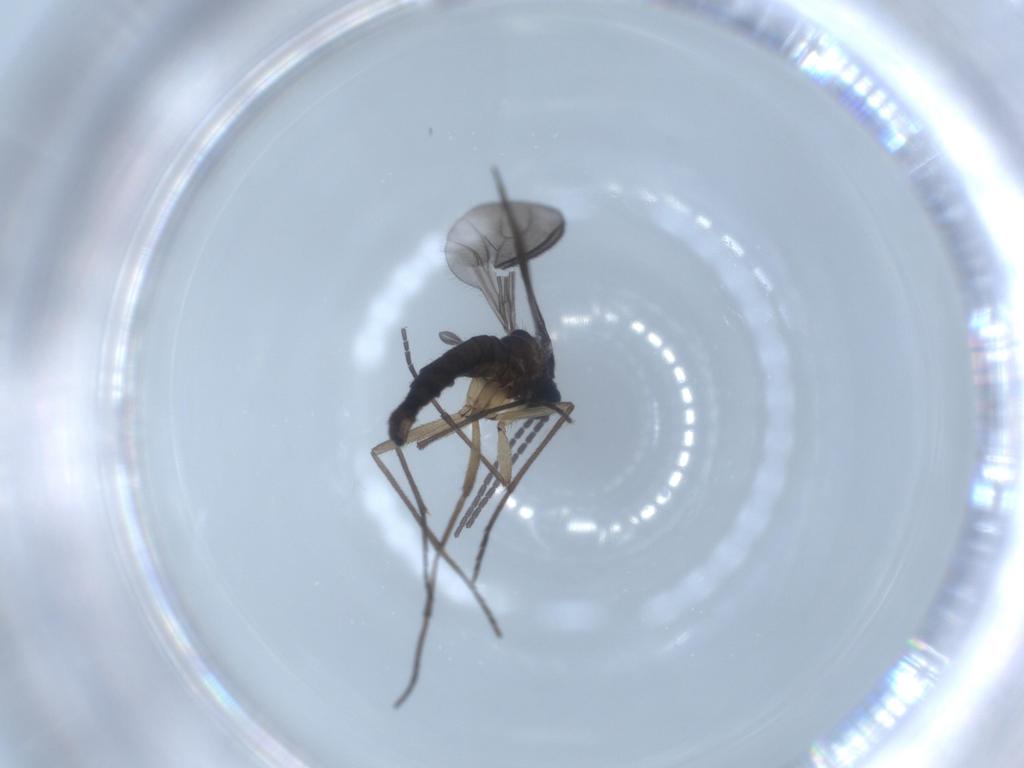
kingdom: Animalia
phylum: Arthropoda
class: Insecta
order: Diptera
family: Sciaridae
